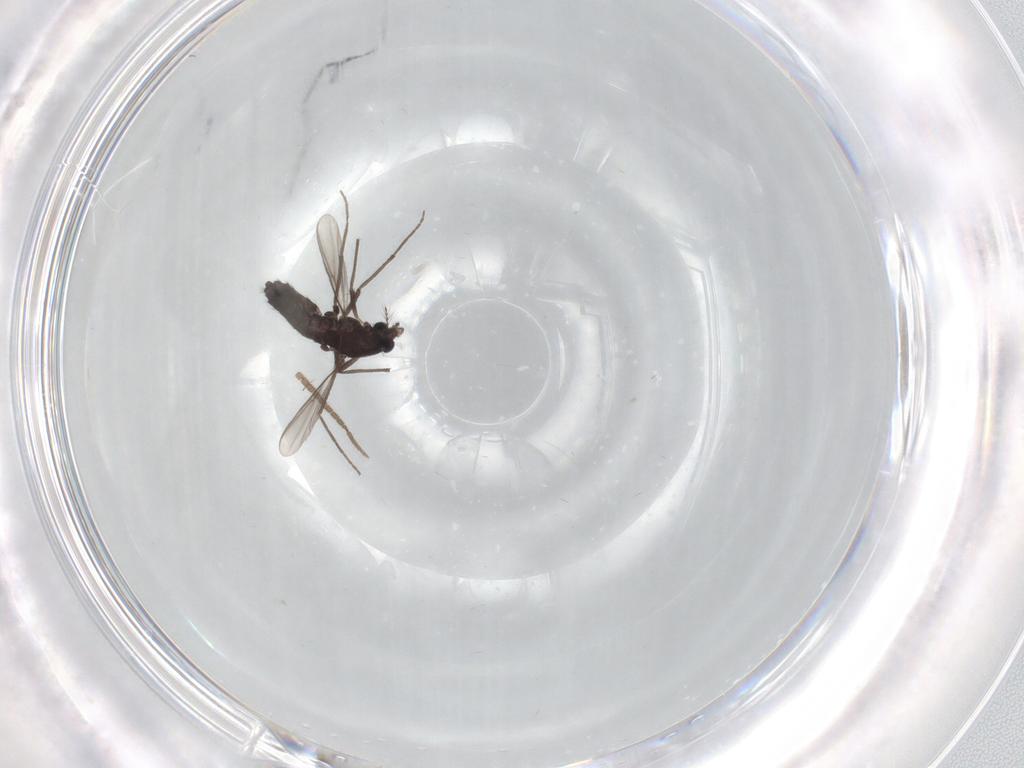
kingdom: Animalia
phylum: Arthropoda
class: Insecta
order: Diptera
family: Mycetophilidae
